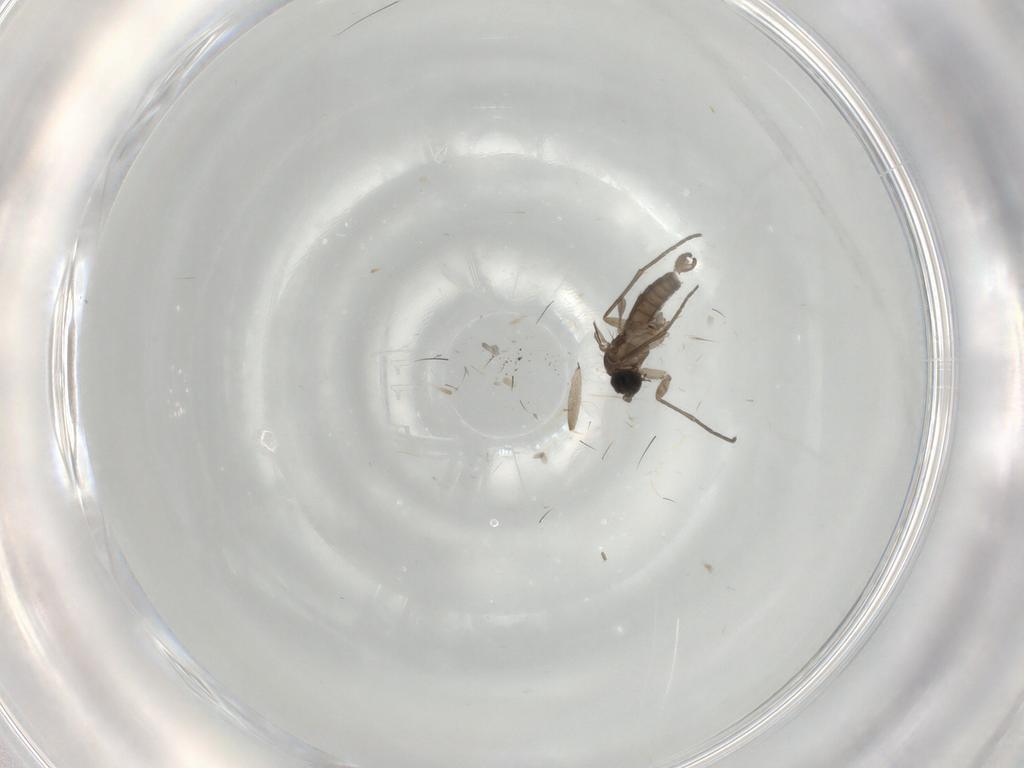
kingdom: Animalia
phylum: Arthropoda
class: Insecta
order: Diptera
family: Sciaridae
